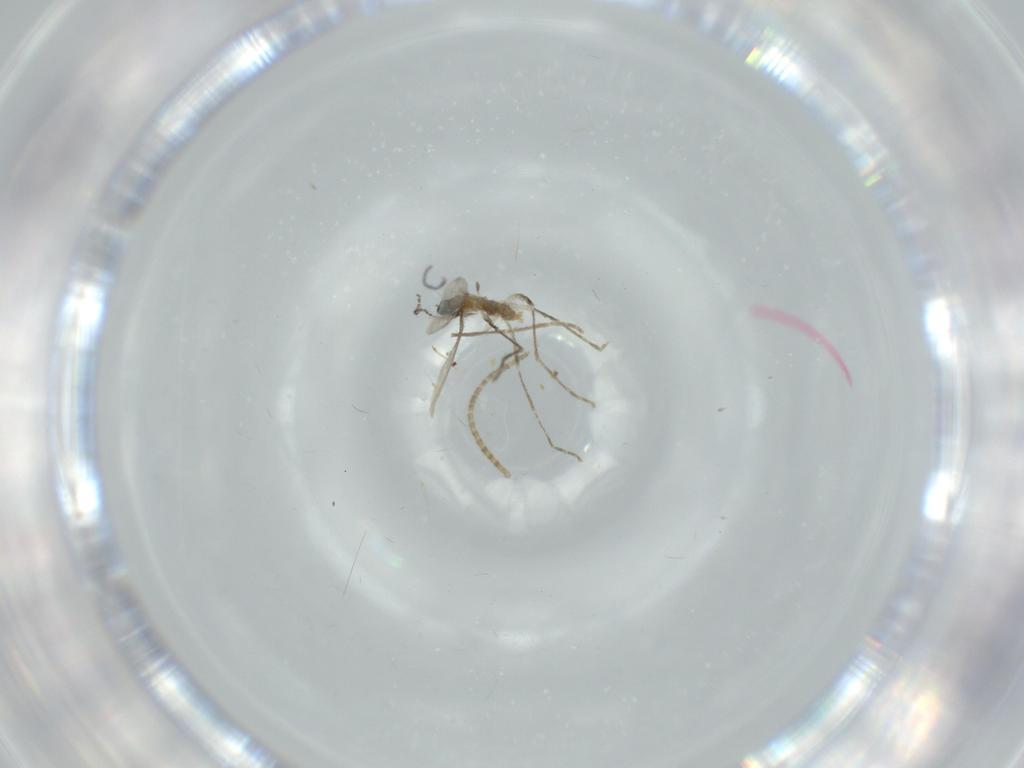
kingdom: Animalia
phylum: Arthropoda
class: Insecta
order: Diptera
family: Cecidomyiidae
